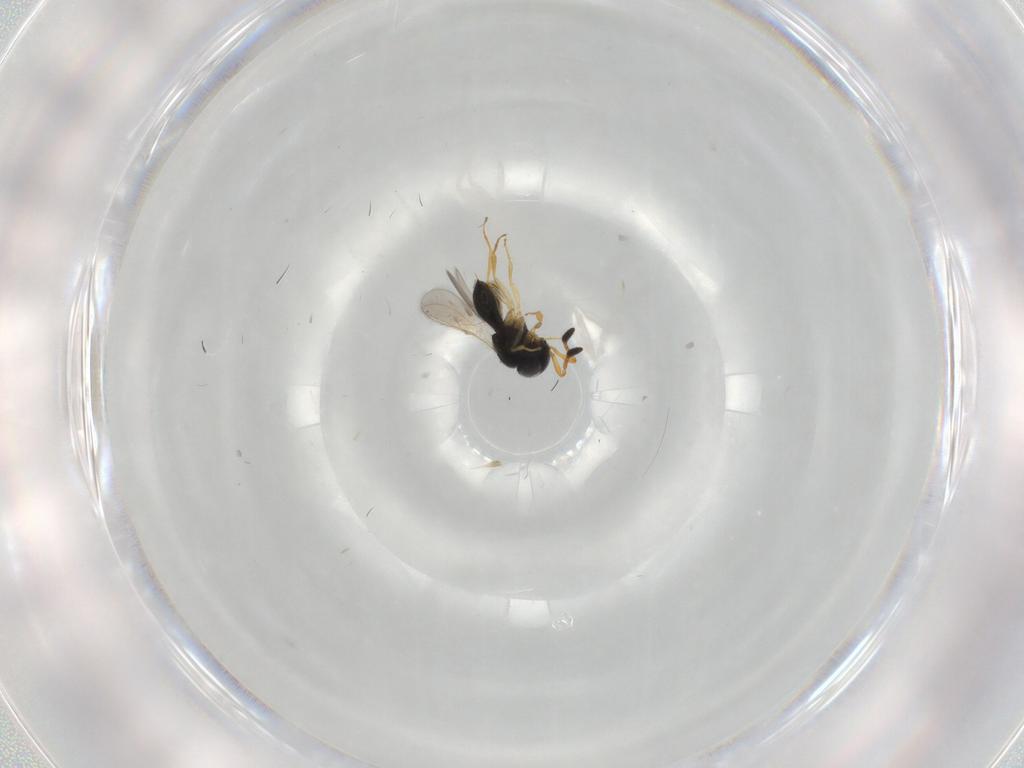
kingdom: Animalia
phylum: Arthropoda
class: Insecta
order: Hymenoptera
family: Scelionidae
